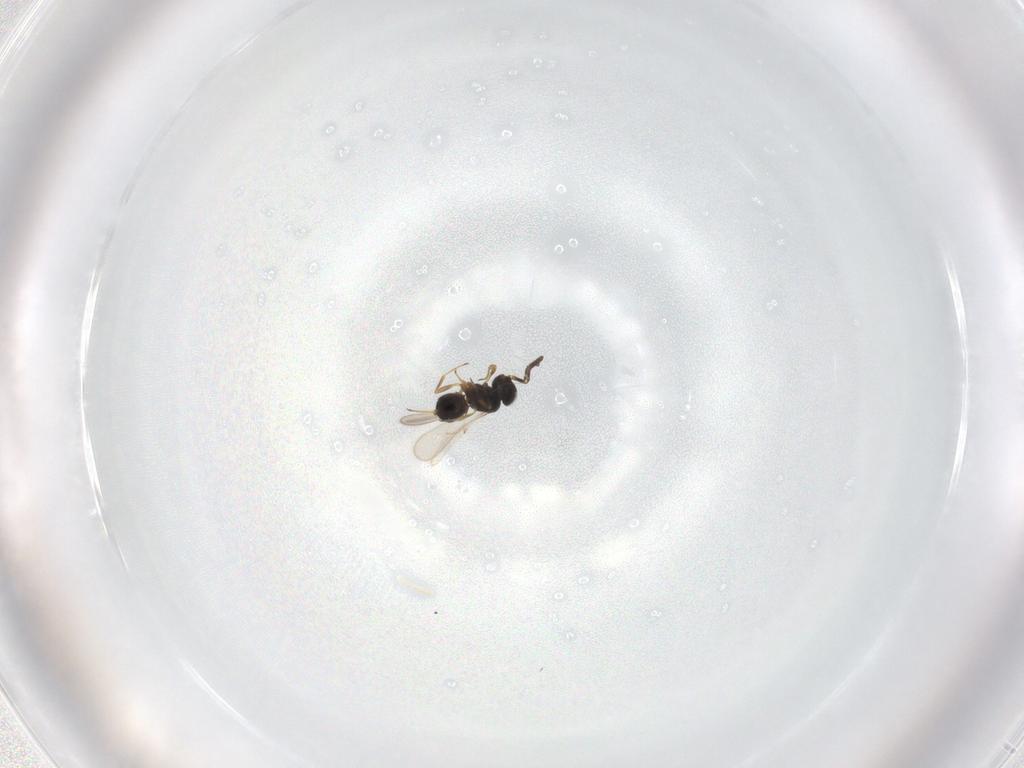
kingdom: Animalia
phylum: Arthropoda
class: Insecta
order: Hymenoptera
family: Scelionidae
